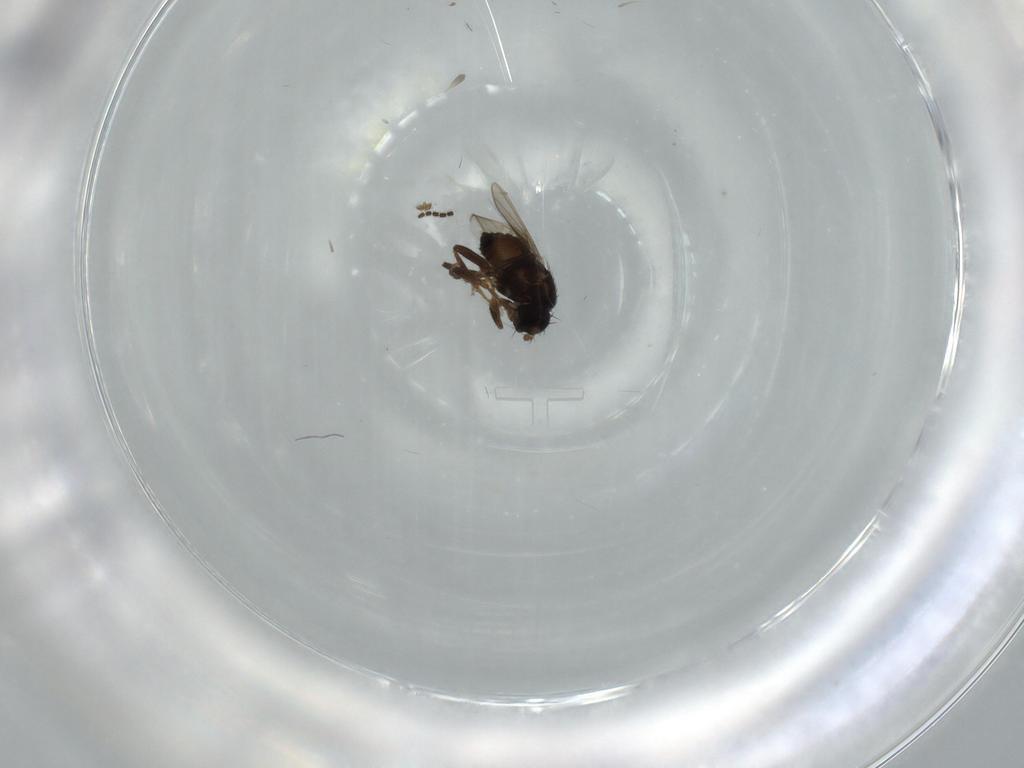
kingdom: Animalia
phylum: Arthropoda
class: Insecta
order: Diptera
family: Sphaeroceridae
